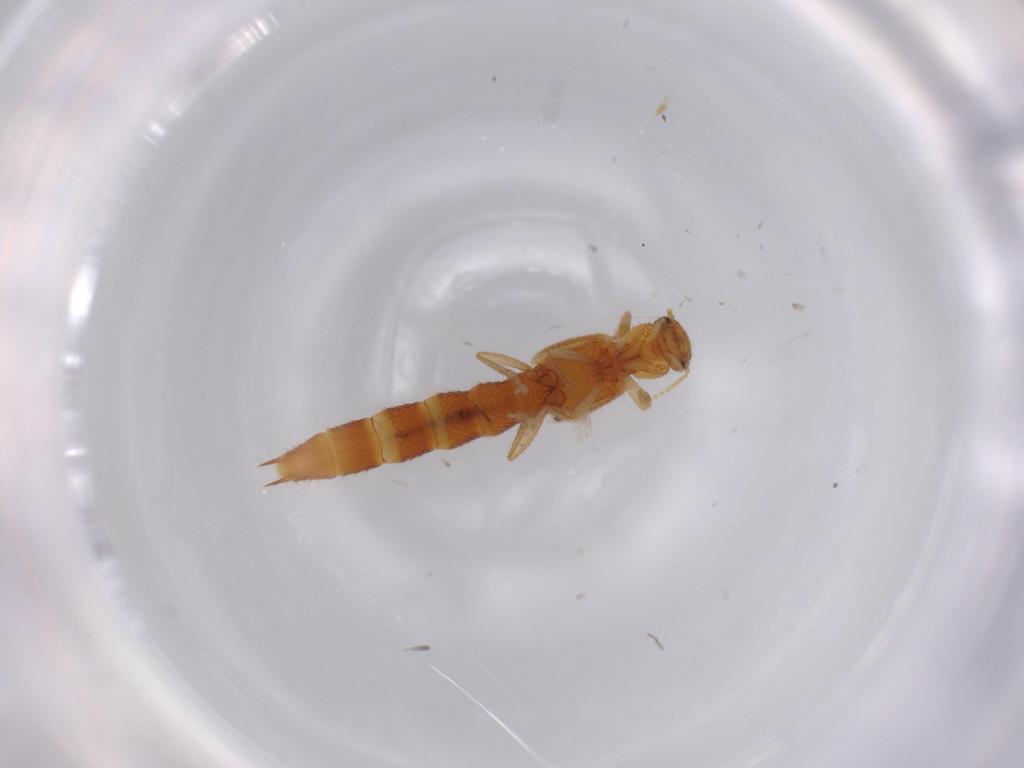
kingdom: Animalia
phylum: Arthropoda
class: Insecta
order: Coleoptera
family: Staphylinidae
